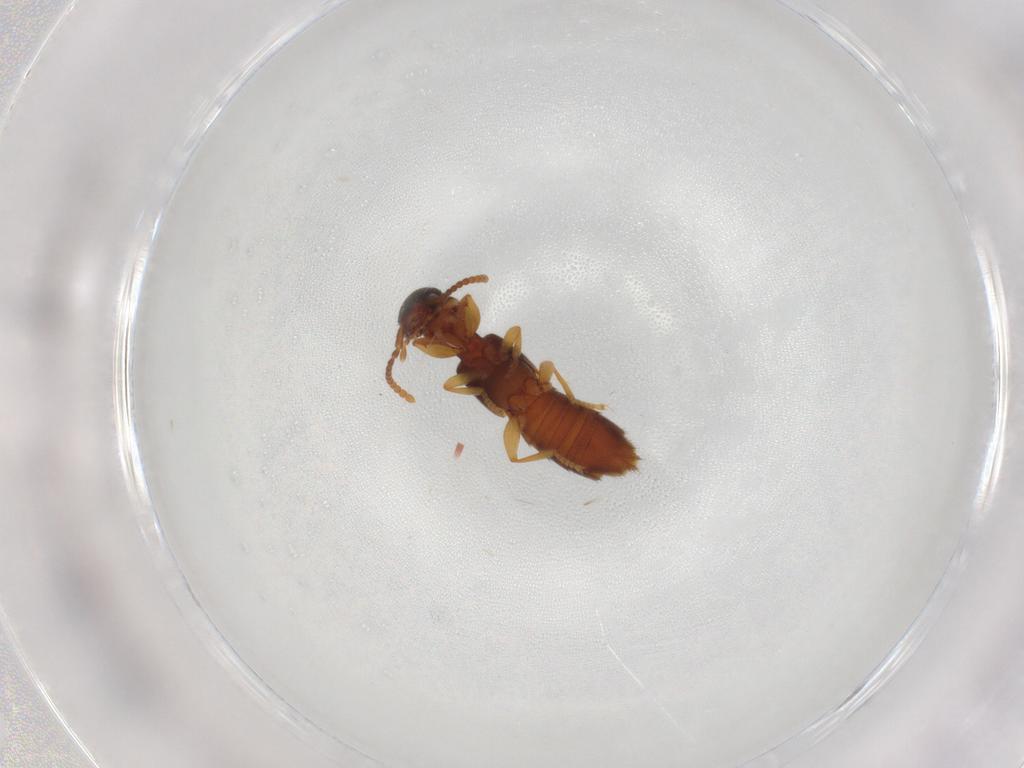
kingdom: Animalia
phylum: Arthropoda
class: Insecta
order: Coleoptera
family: Staphylinidae
